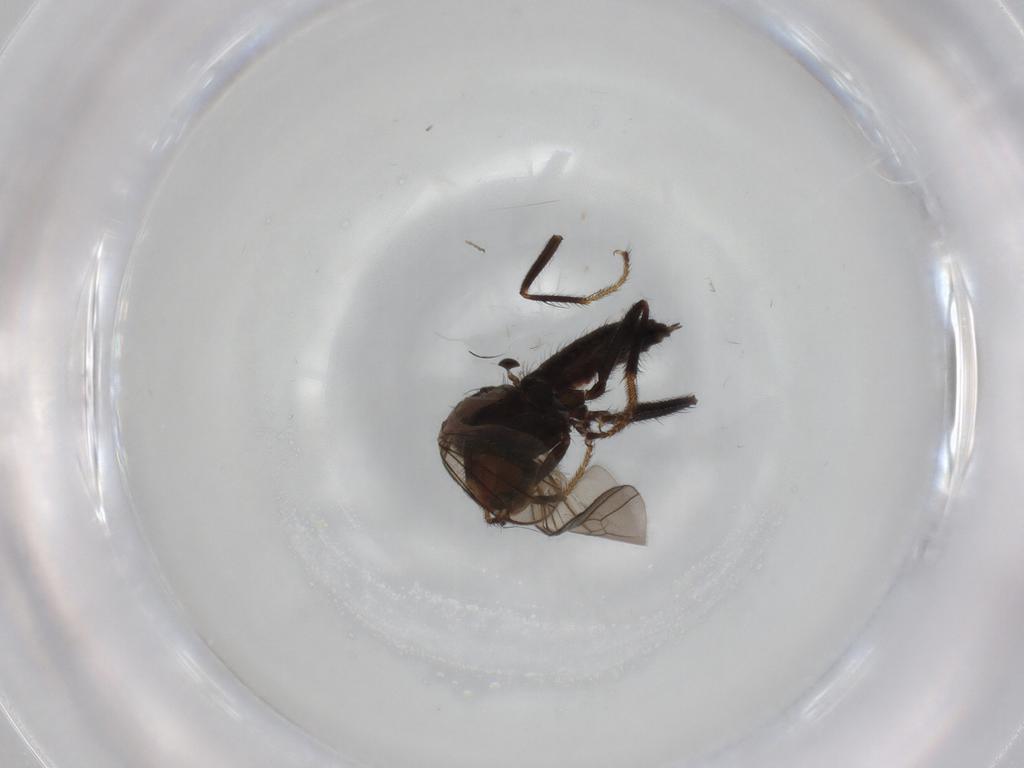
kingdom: Animalia
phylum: Arthropoda
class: Insecta
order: Diptera
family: Hybotidae
